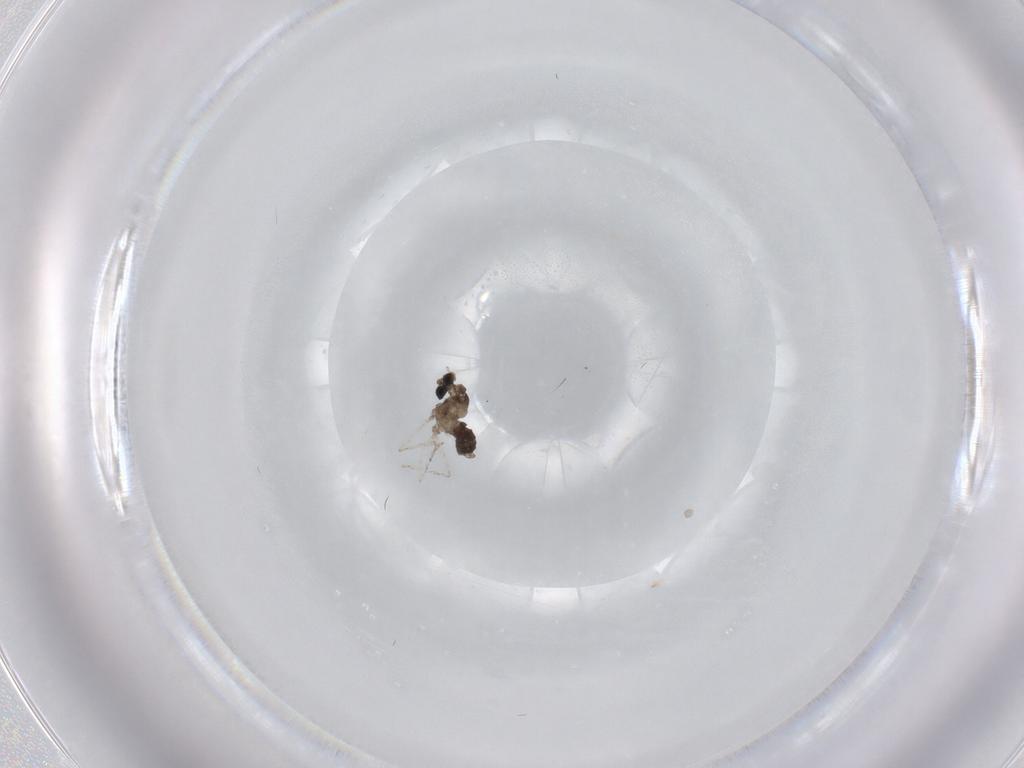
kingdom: Animalia
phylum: Arthropoda
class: Insecta
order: Diptera
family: Cecidomyiidae
